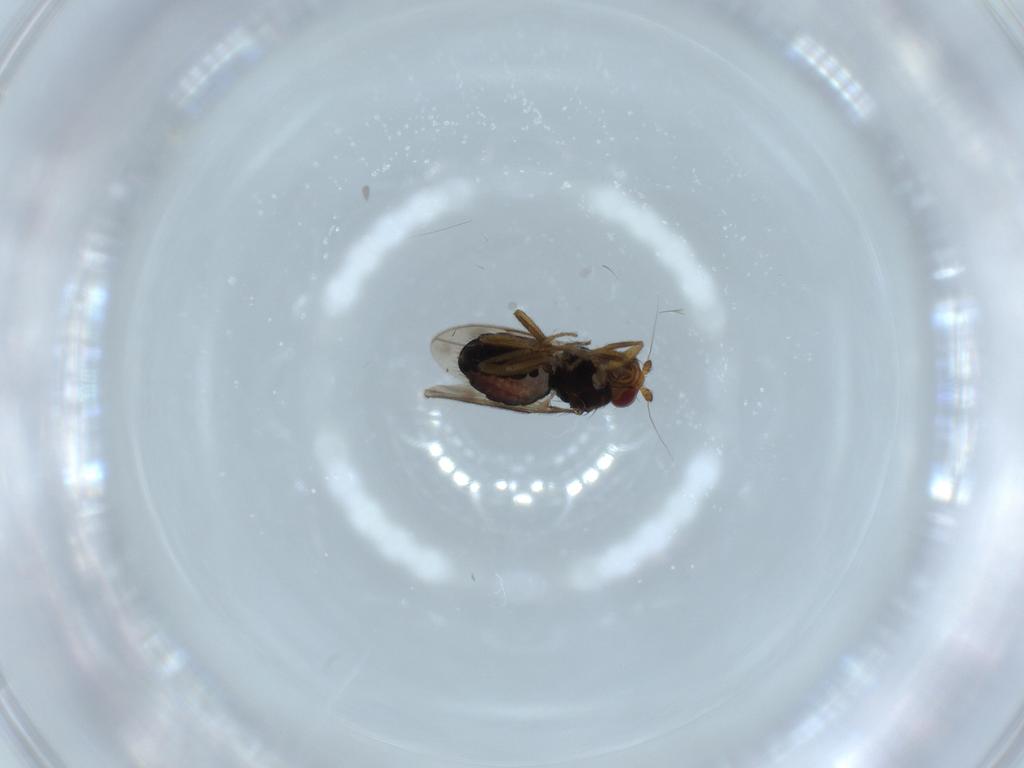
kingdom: Animalia
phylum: Arthropoda
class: Insecta
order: Diptera
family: Sphaeroceridae
